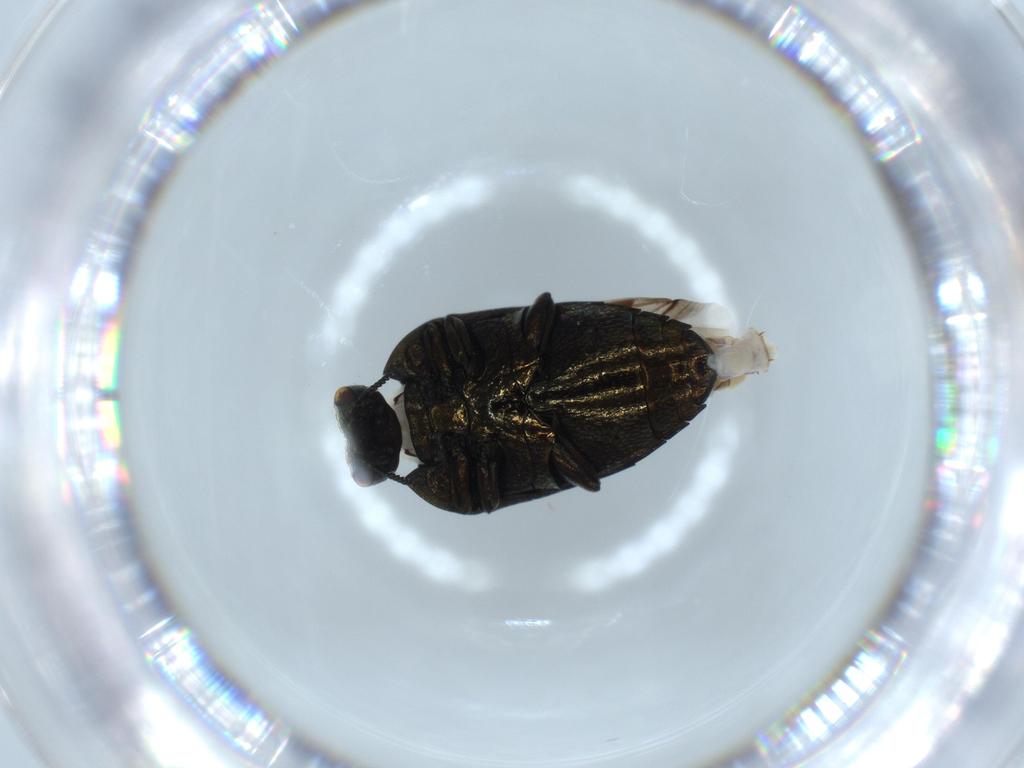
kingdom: Animalia
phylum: Arthropoda
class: Insecta
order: Coleoptera
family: Buprestidae
